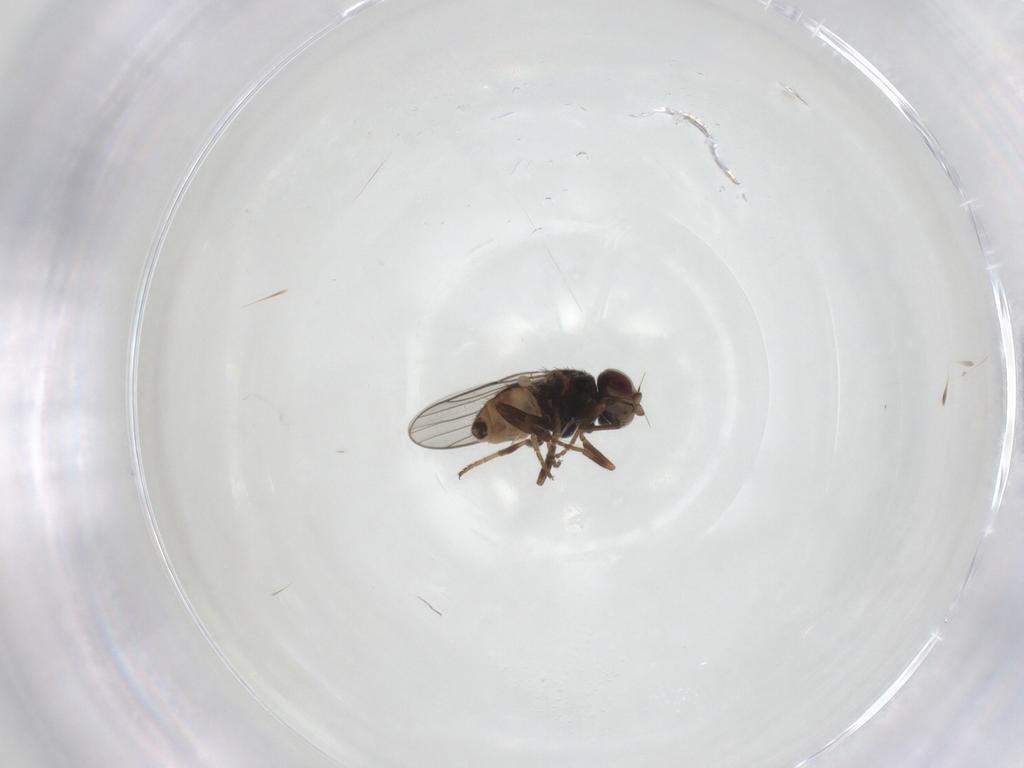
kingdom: Animalia
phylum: Arthropoda
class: Insecta
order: Diptera
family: Chloropidae
